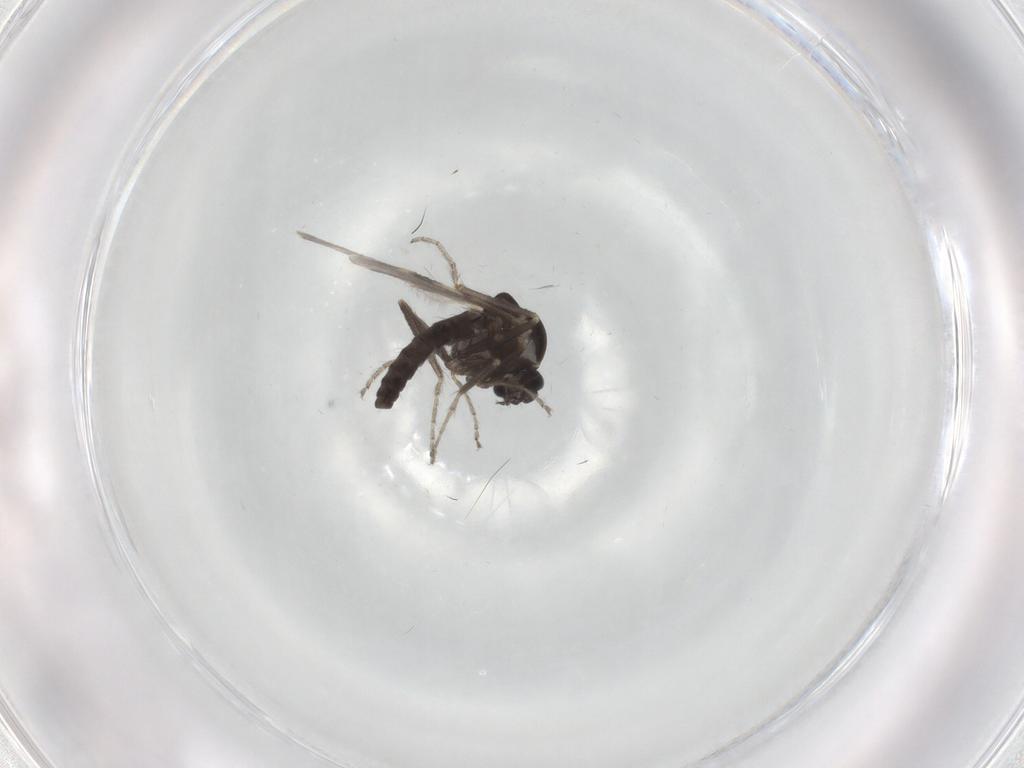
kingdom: Animalia
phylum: Arthropoda
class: Insecta
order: Diptera
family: Ceratopogonidae
